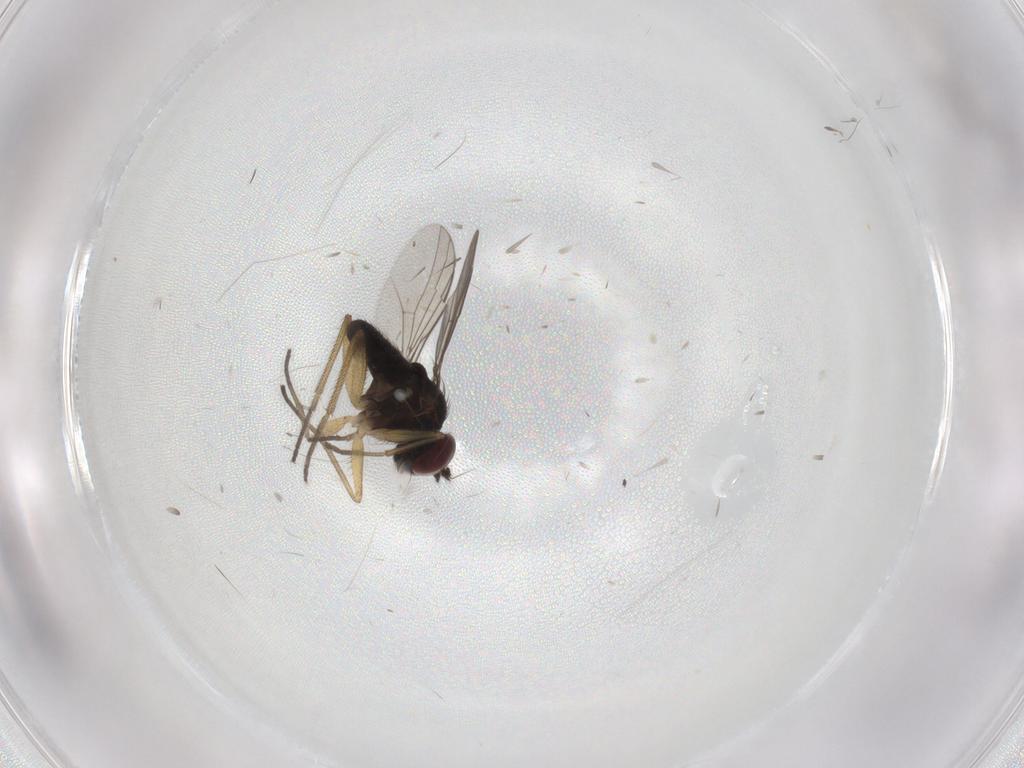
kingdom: Animalia
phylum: Arthropoda
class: Insecta
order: Diptera
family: Dolichopodidae
